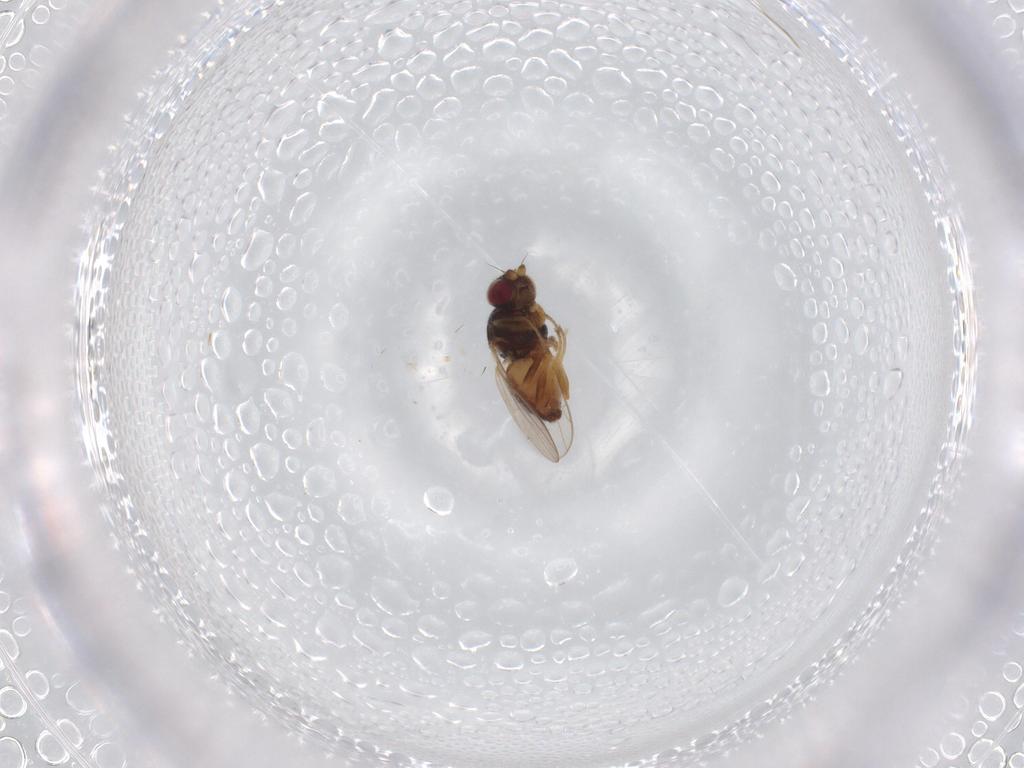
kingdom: Animalia
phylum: Arthropoda
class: Insecta
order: Diptera
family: Chloropidae
